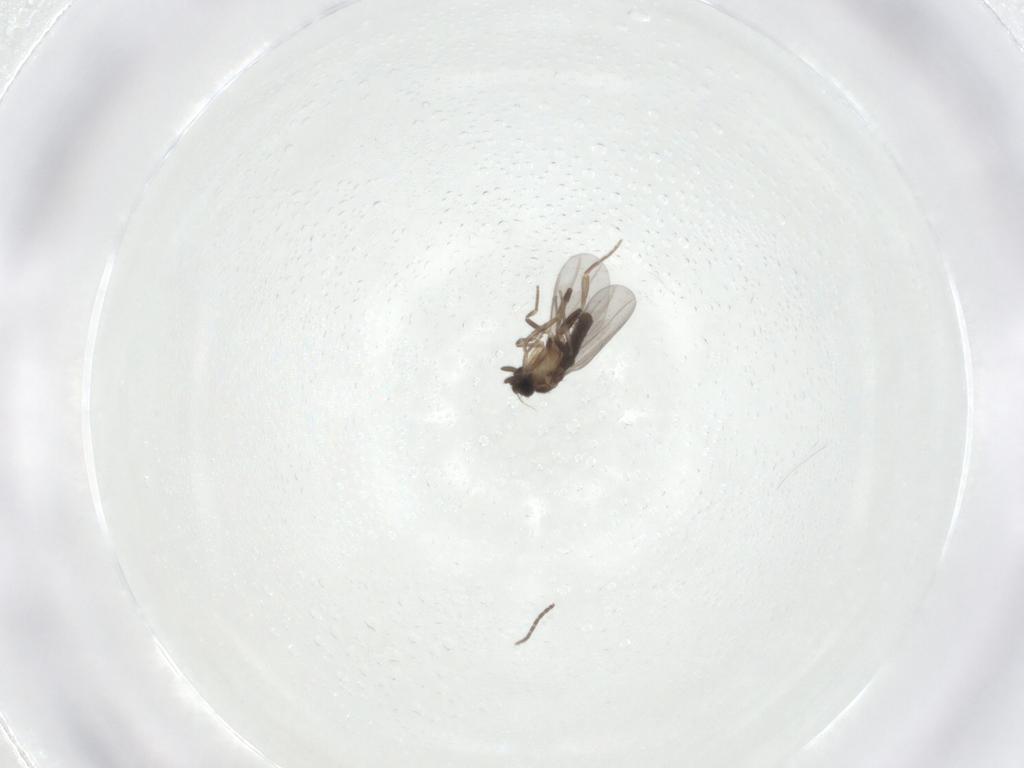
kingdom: Animalia
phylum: Arthropoda
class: Insecta
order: Diptera
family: Sciaridae
